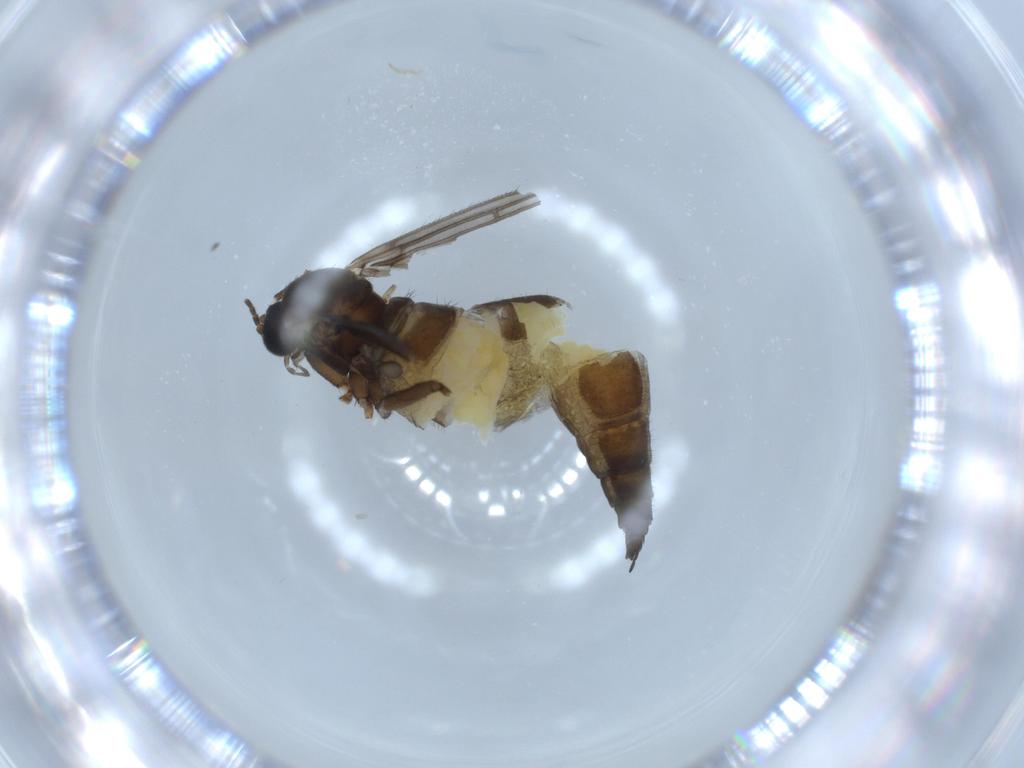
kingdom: Animalia
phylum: Arthropoda
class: Insecta
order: Diptera
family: Sciaridae
